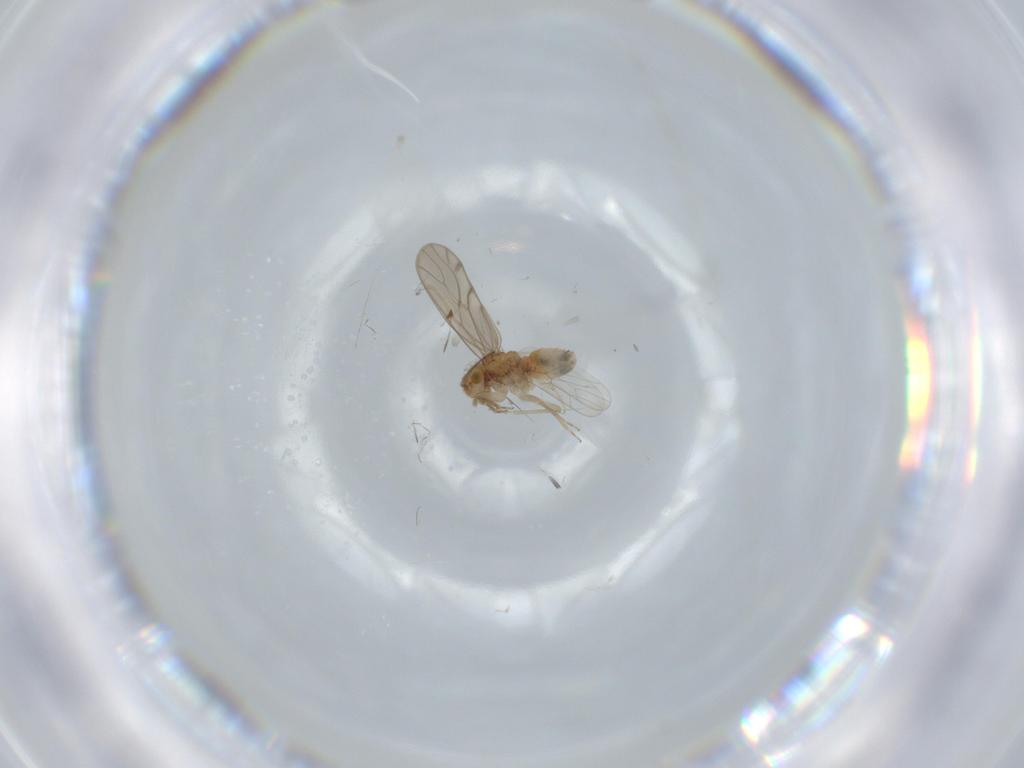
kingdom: Animalia
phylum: Arthropoda
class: Insecta
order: Psocodea
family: Ectopsocidae
